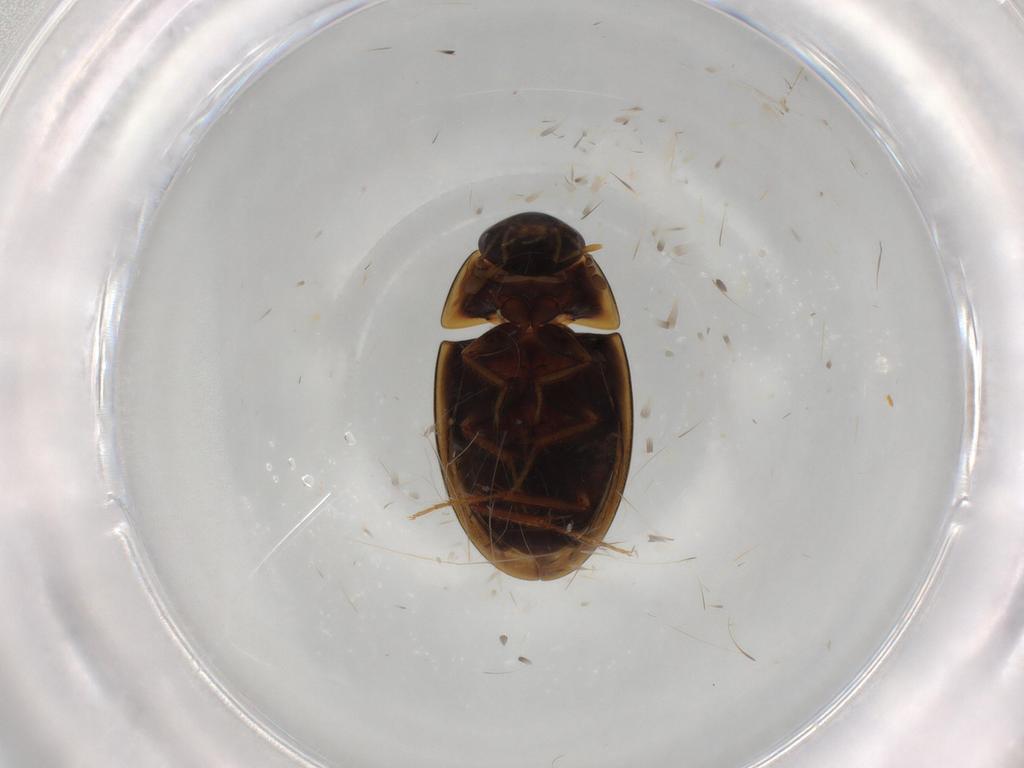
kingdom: Animalia
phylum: Arthropoda
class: Insecta
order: Coleoptera
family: Hydrophilidae
